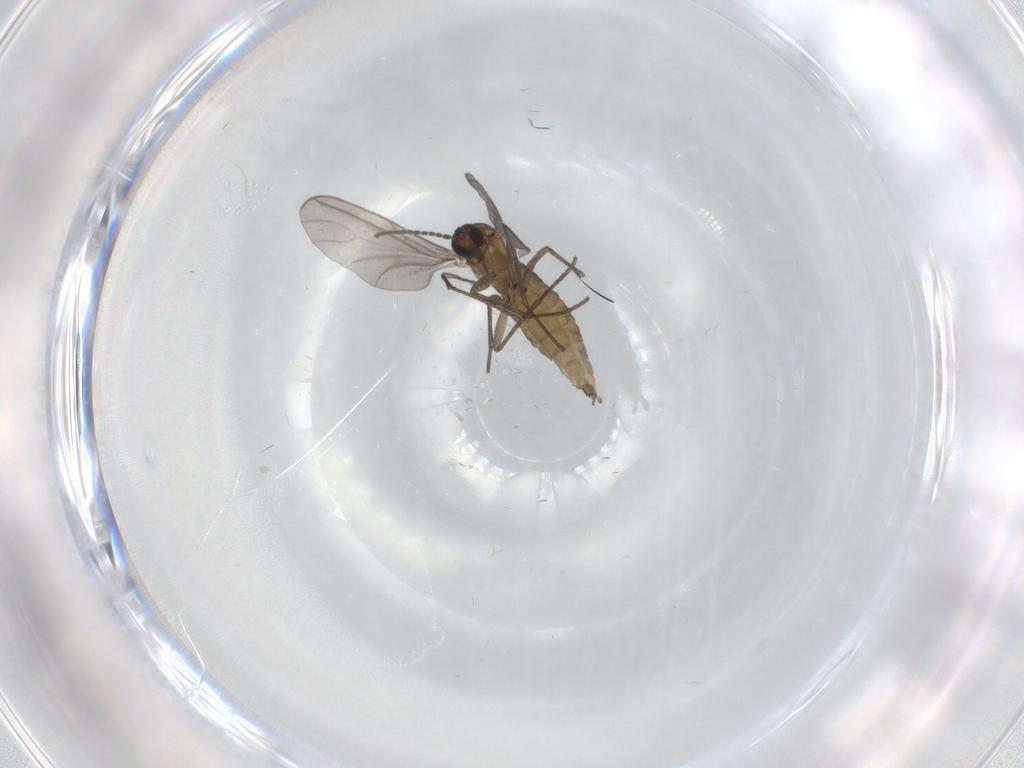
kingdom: Animalia
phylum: Arthropoda
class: Insecta
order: Diptera
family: Sciaridae
